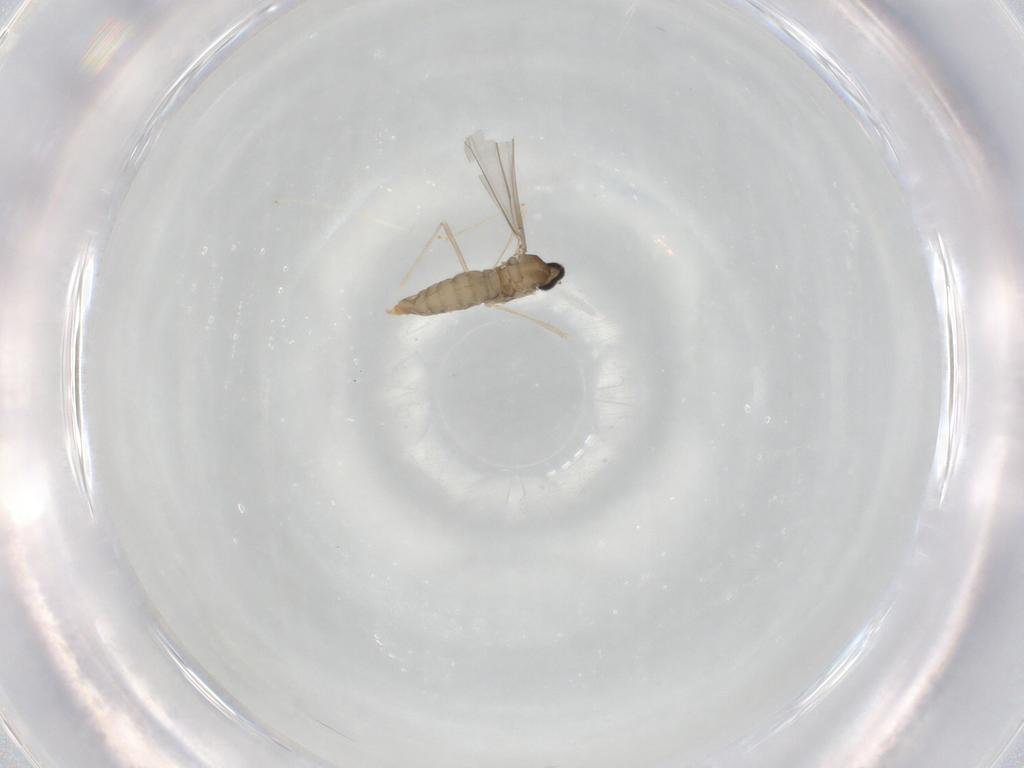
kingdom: Animalia
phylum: Arthropoda
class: Insecta
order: Diptera
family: Cecidomyiidae
